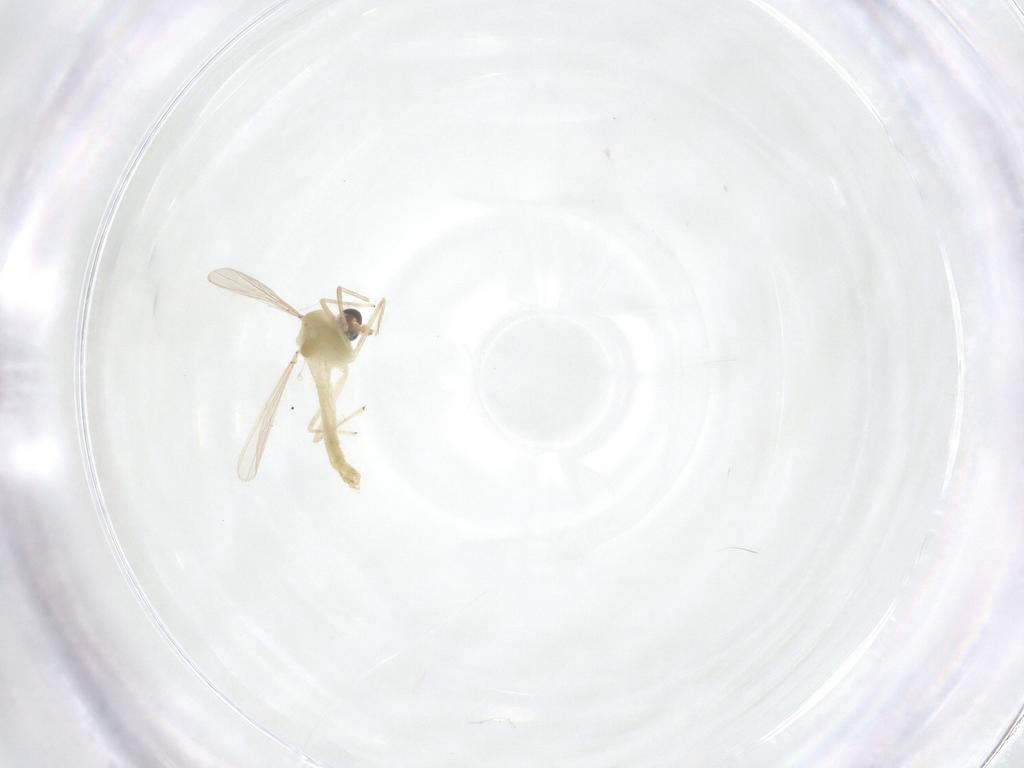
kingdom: Animalia
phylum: Arthropoda
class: Insecta
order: Diptera
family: Chironomidae
